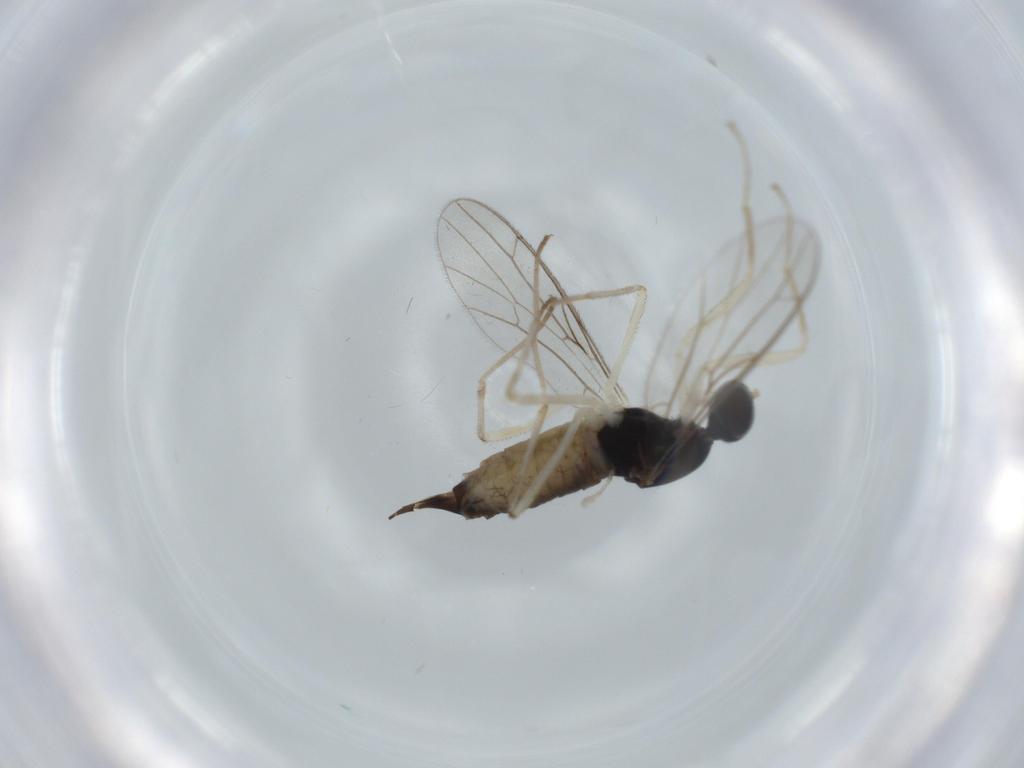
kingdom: Animalia
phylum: Arthropoda
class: Insecta
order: Diptera
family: Empididae
